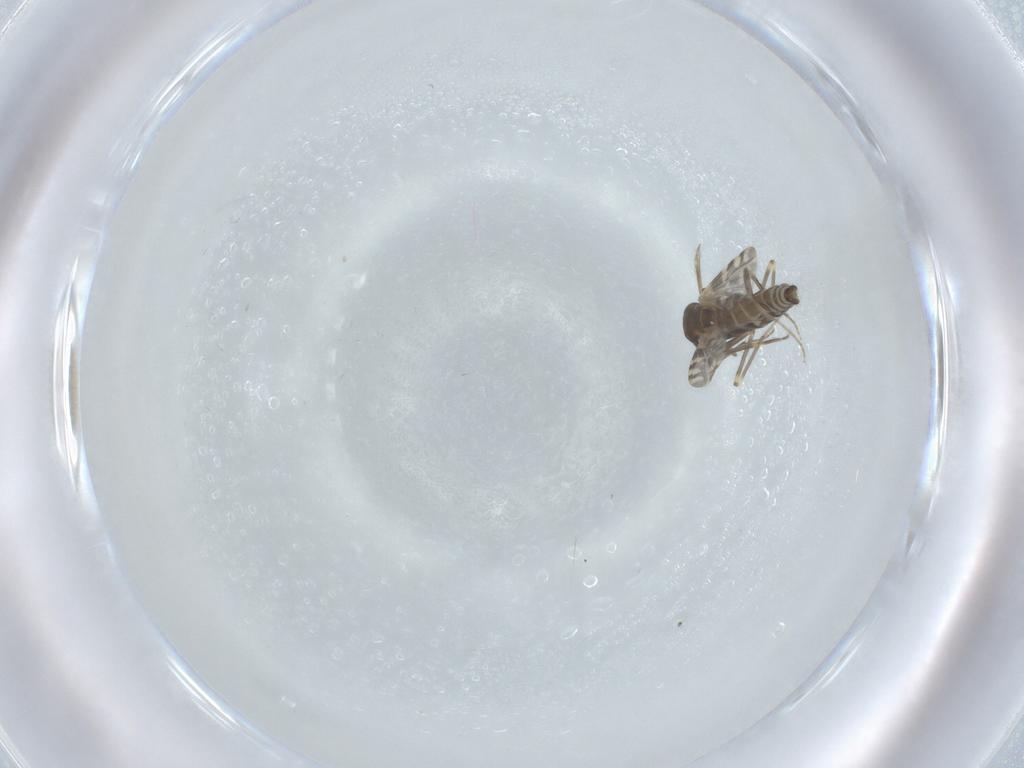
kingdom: Animalia
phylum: Arthropoda
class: Insecta
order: Diptera
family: Ceratopogonidae
